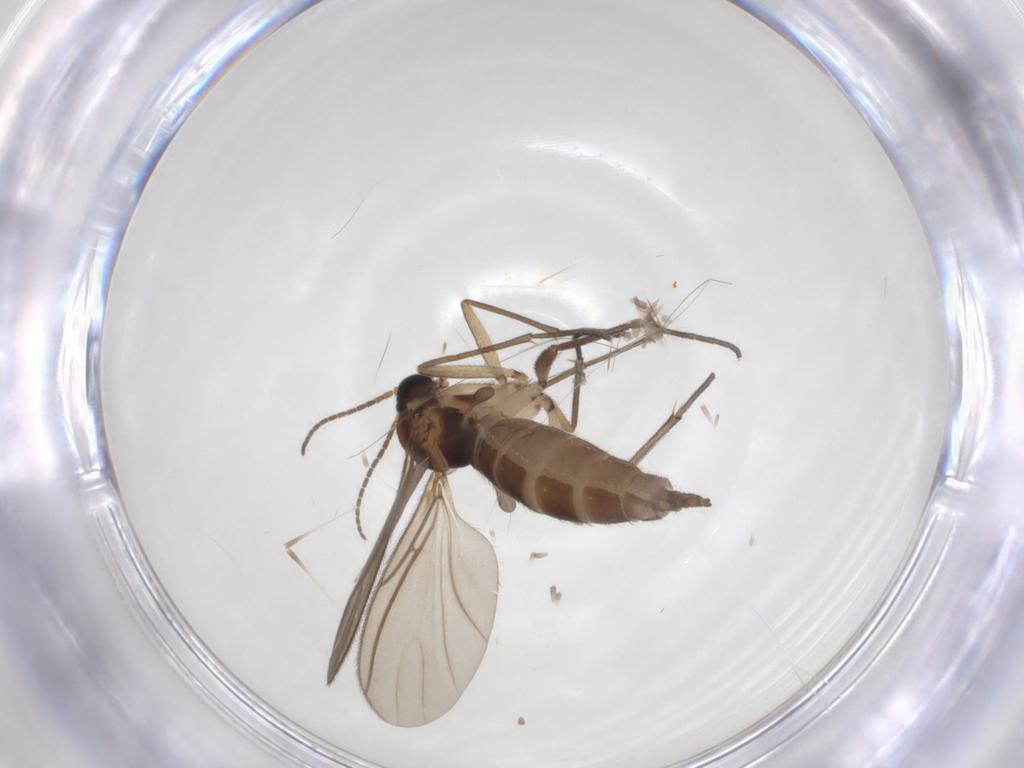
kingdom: Animalia
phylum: Arthropoda
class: Insecta
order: Diptera
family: Sciaridae
